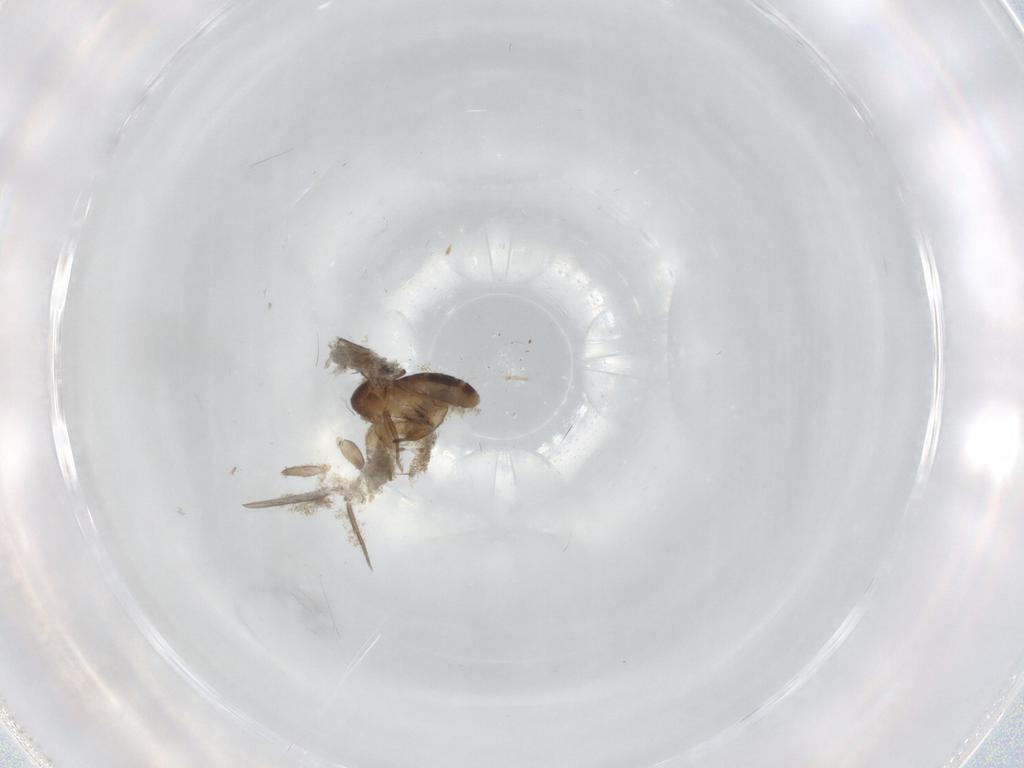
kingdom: Animalia
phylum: Arthropoda
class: Insecta
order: Diptera
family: Phoridae
